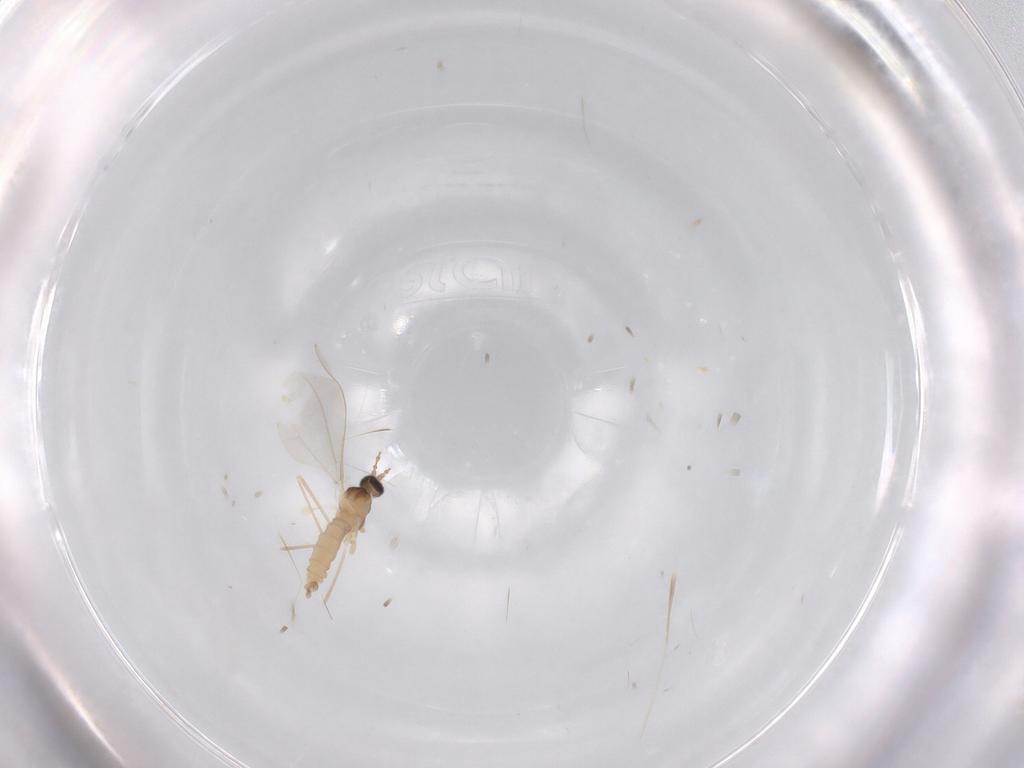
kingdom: Animalia
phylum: Arthropoda
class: Insecta
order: Diptera
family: Cecidomyiidae
